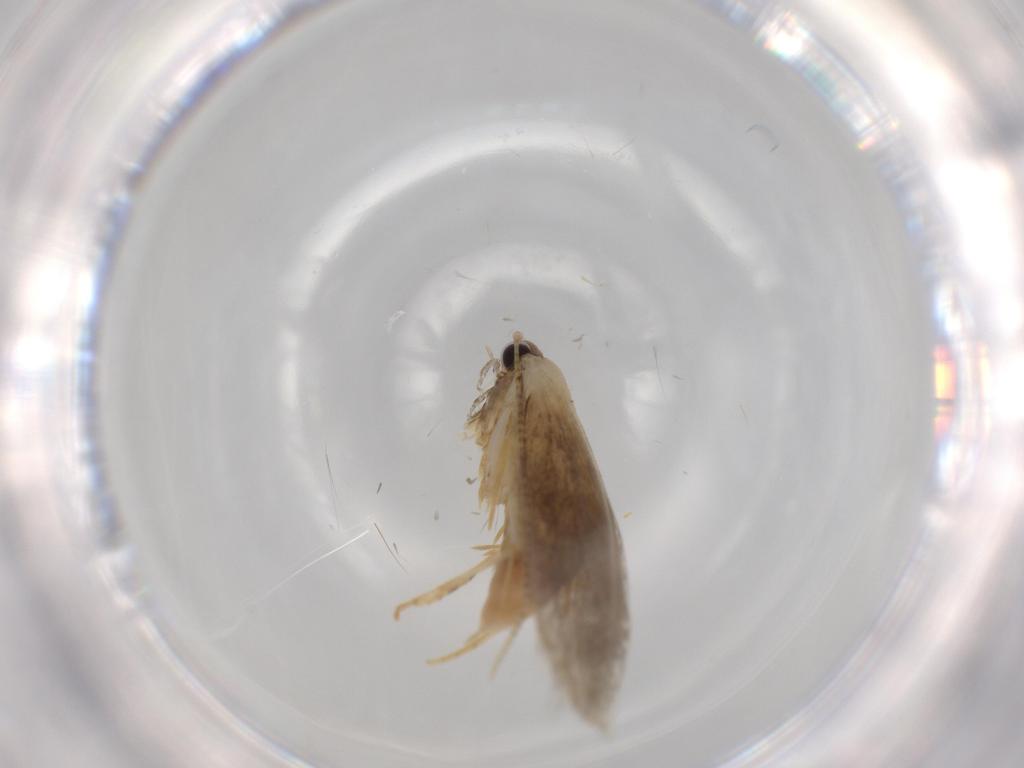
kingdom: Animalia
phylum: Arthropoda
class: Insecta
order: Lepidoptera
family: Tineidae
